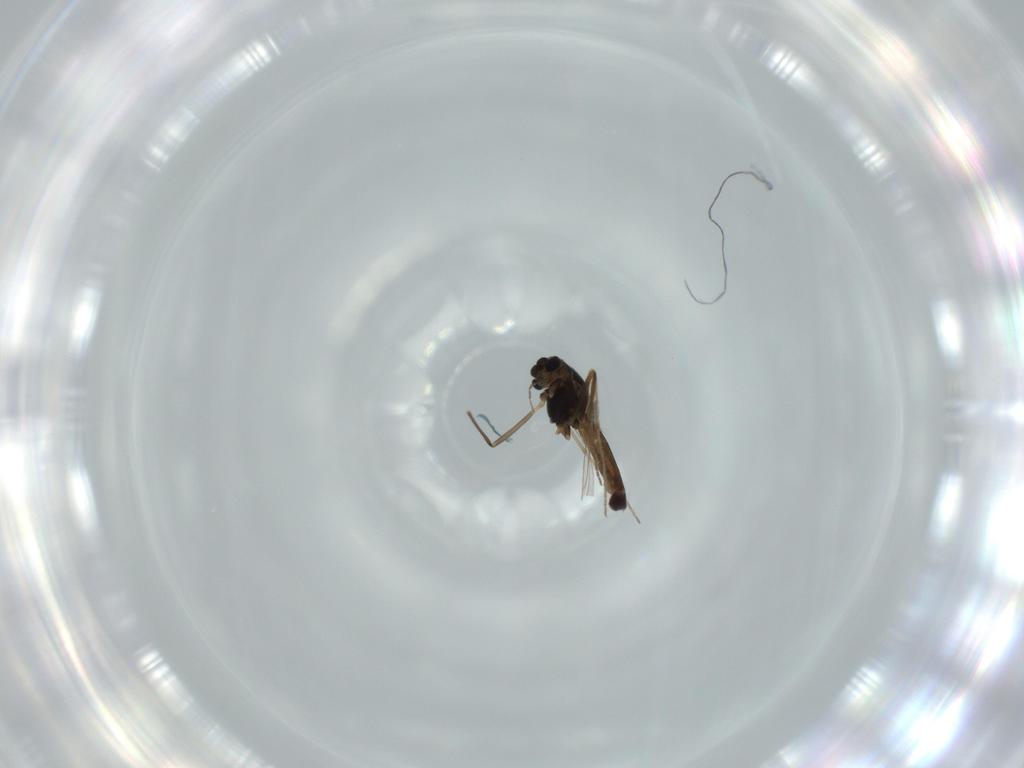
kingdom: Animalia
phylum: Arthropoda
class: Insecta
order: Diptera
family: Chironomidae
